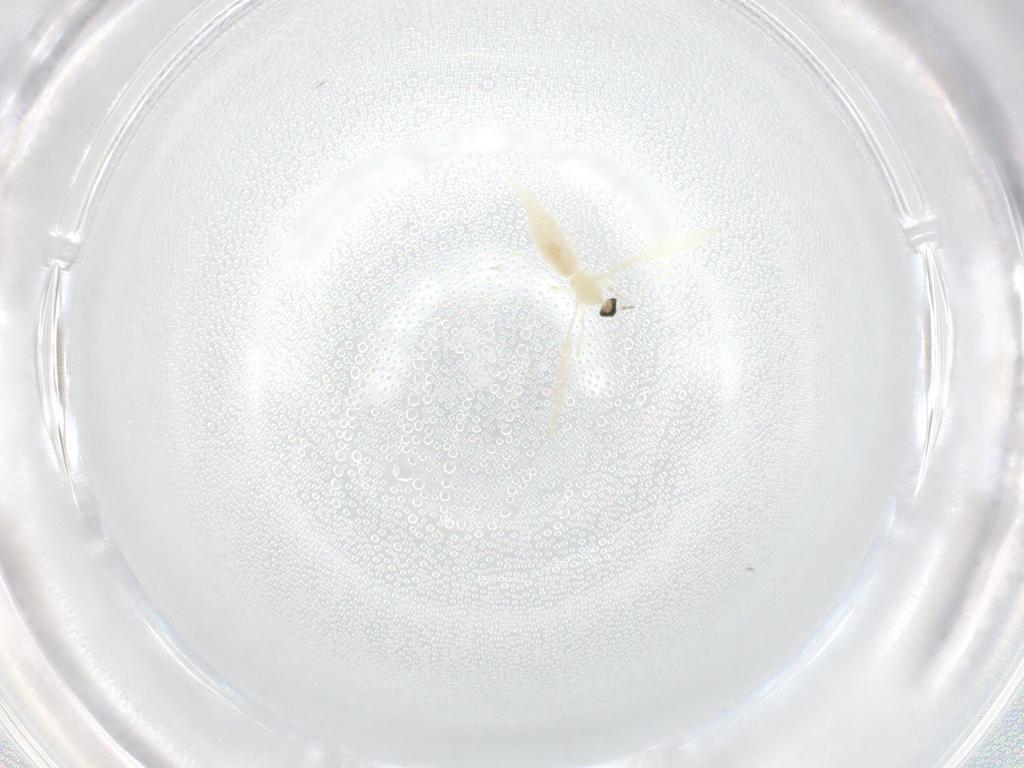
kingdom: Animalia
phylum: Arthropoda
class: Insecta
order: Diptera
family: Cecidomyiidae
